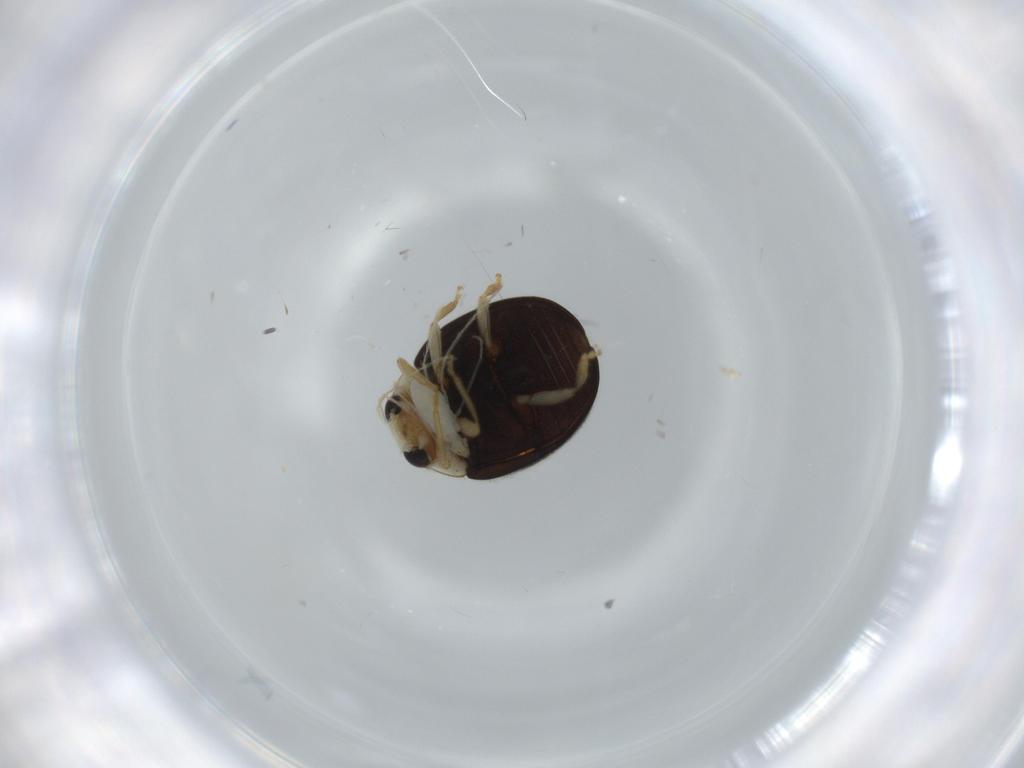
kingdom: Animalia
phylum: Arthropoda
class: Insecta
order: Coleoptera
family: Coccinellidae
